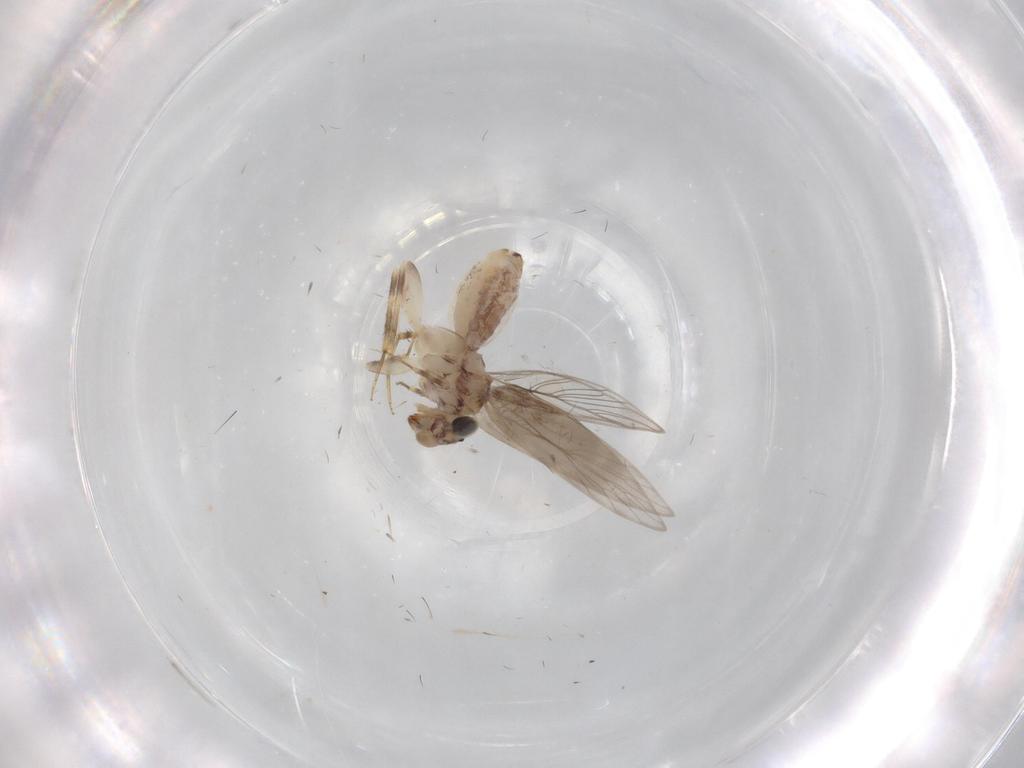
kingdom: Animalia
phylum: Arthropoda
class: Insecta
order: Psocodea
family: Lepidopsocidae
